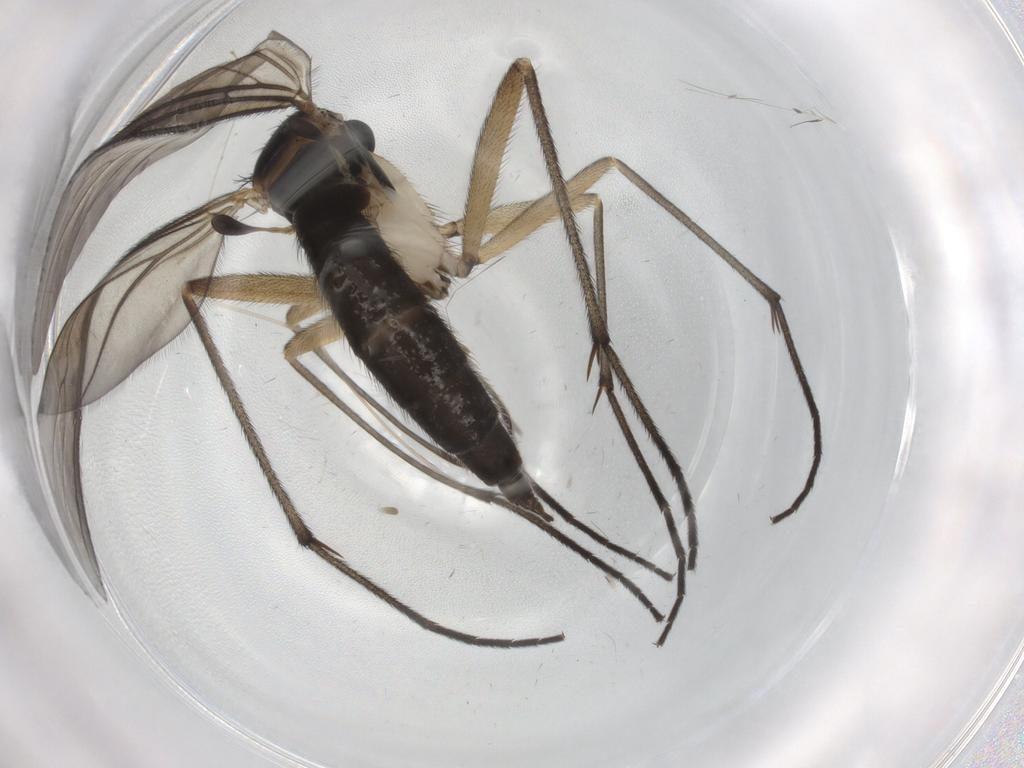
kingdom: Animalia
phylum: Arthropoda
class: Insecta
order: Diptera
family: Sciaridae
